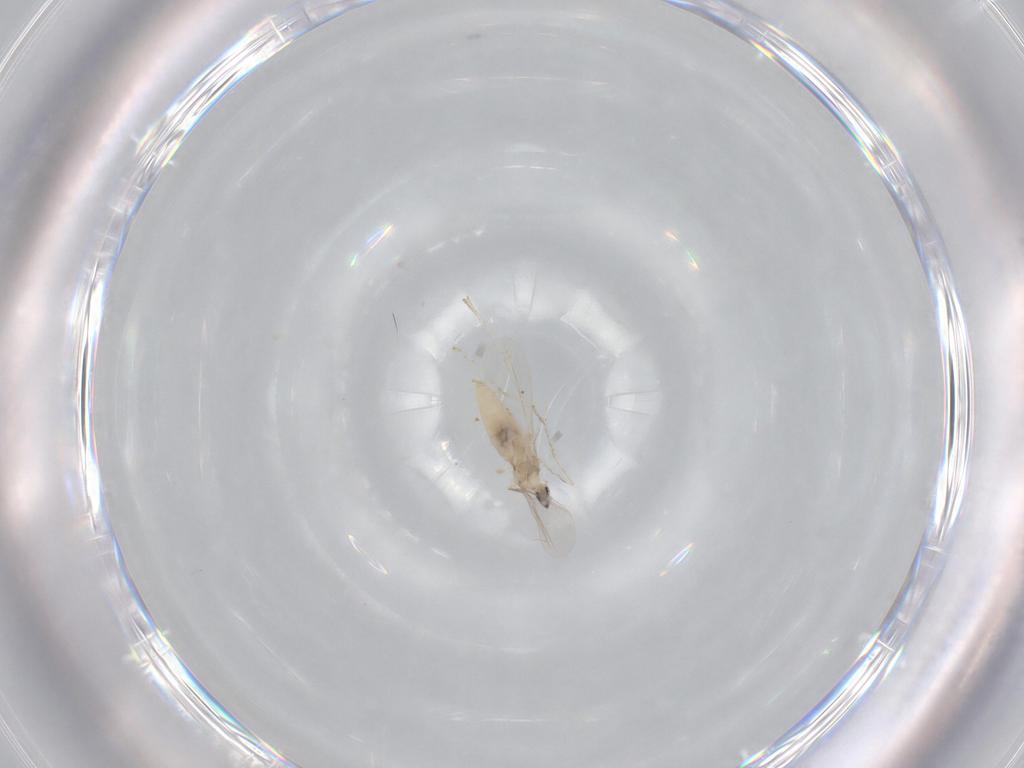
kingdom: Animalia
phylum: Arthropoda
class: Insecta
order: Diptera
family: Cecidomyiidae
